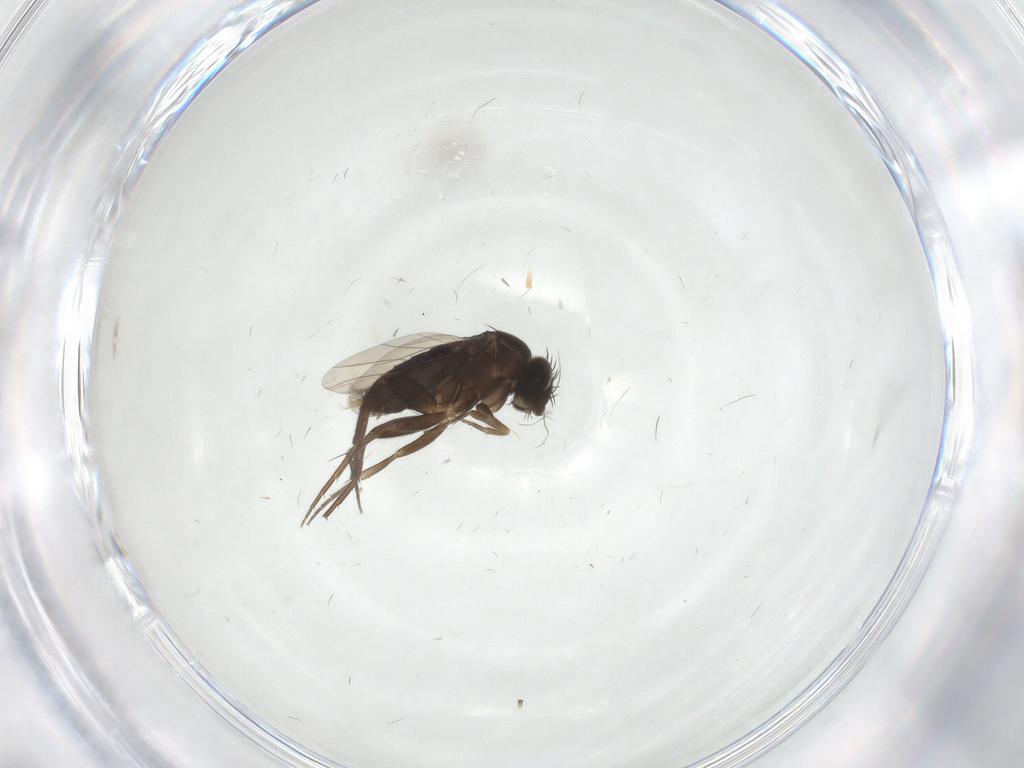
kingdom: Animalia
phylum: Arthropoda
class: Insecta
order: Diptera
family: Phoridae
